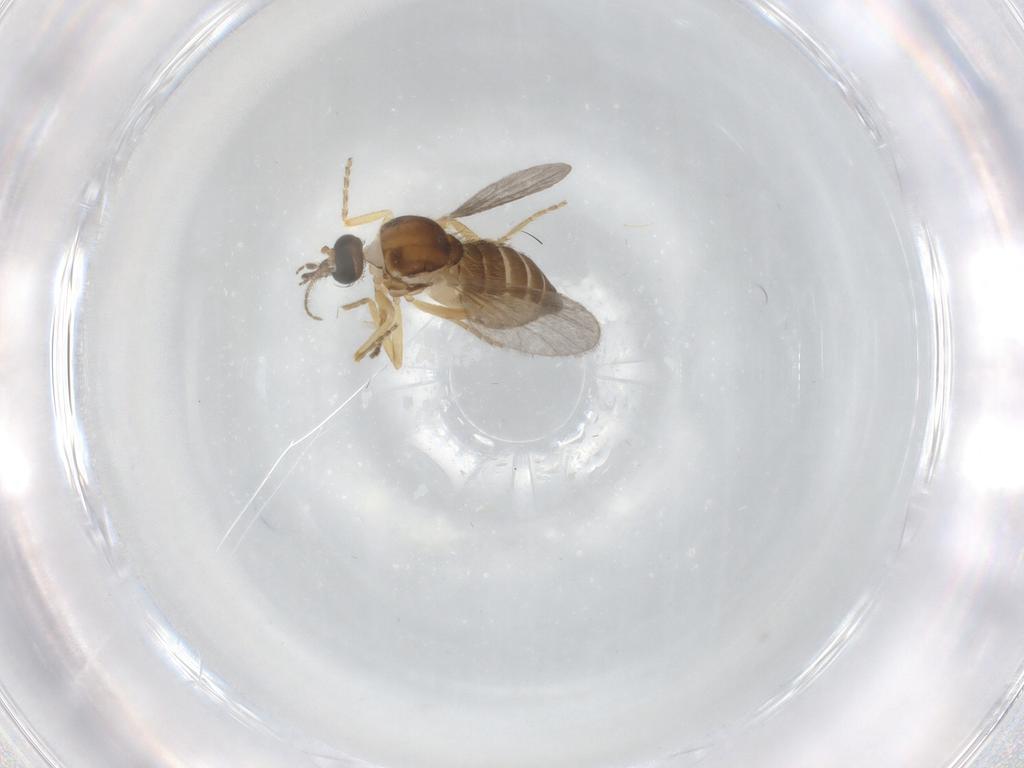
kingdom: Animalia
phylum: Arthropoda
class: Insecta
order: Diptera
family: Ceratopogonidae
